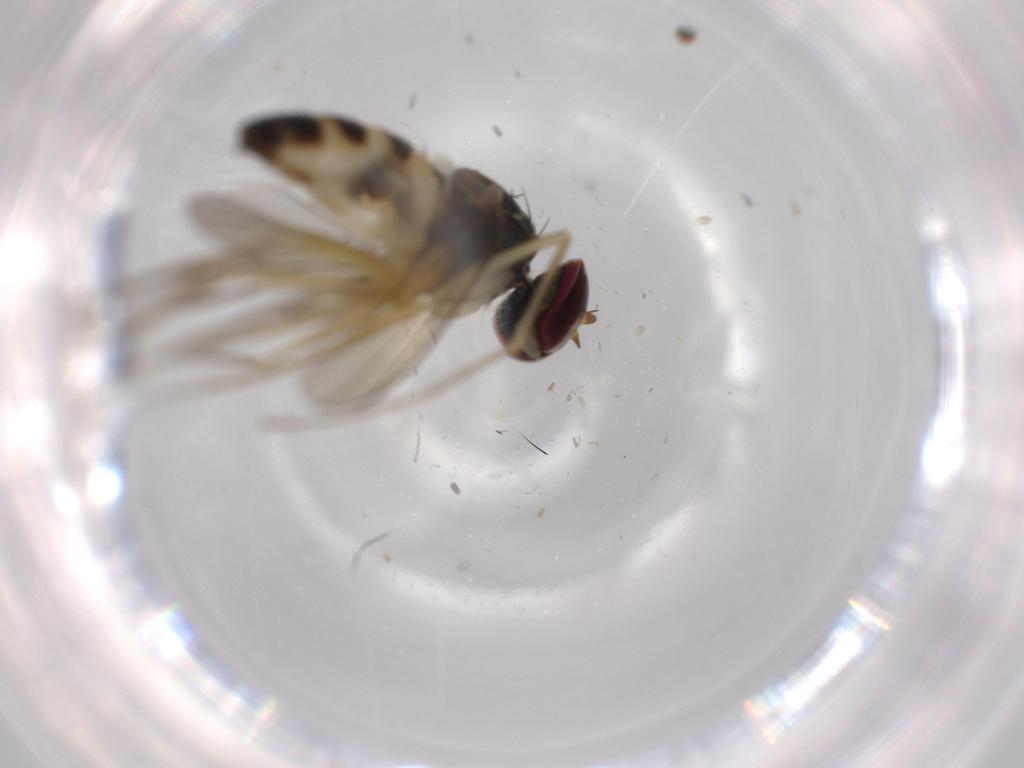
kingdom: Animalia
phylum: Arthropoda
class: Insecta
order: Diptera
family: Dolichopodidae
